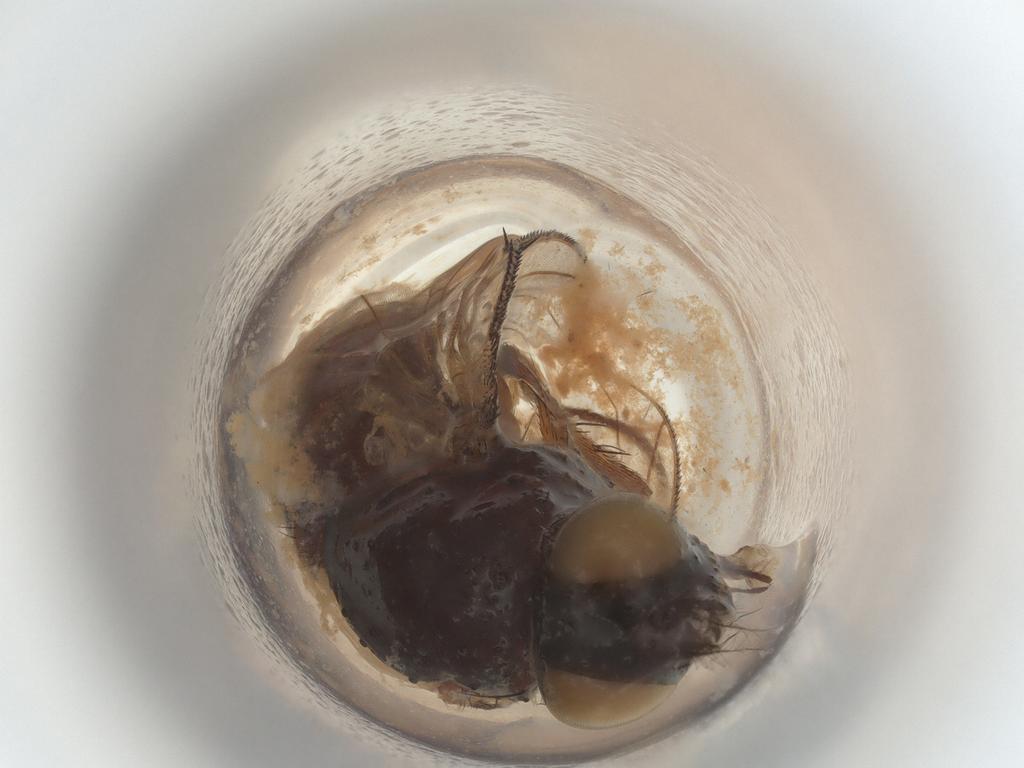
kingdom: Animalia
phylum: Arthropoda
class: Insecta
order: Diptera
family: Muscidae
